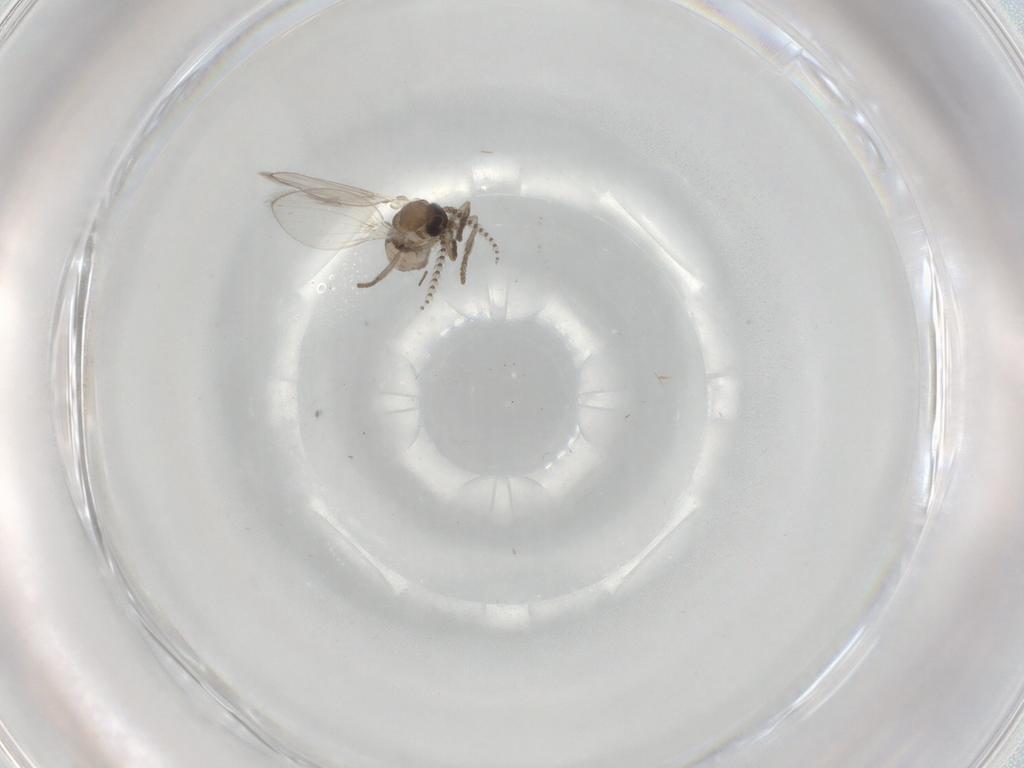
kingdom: Animalia
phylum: Arthropoda
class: Insecta
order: Diptera
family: Psychodidae
